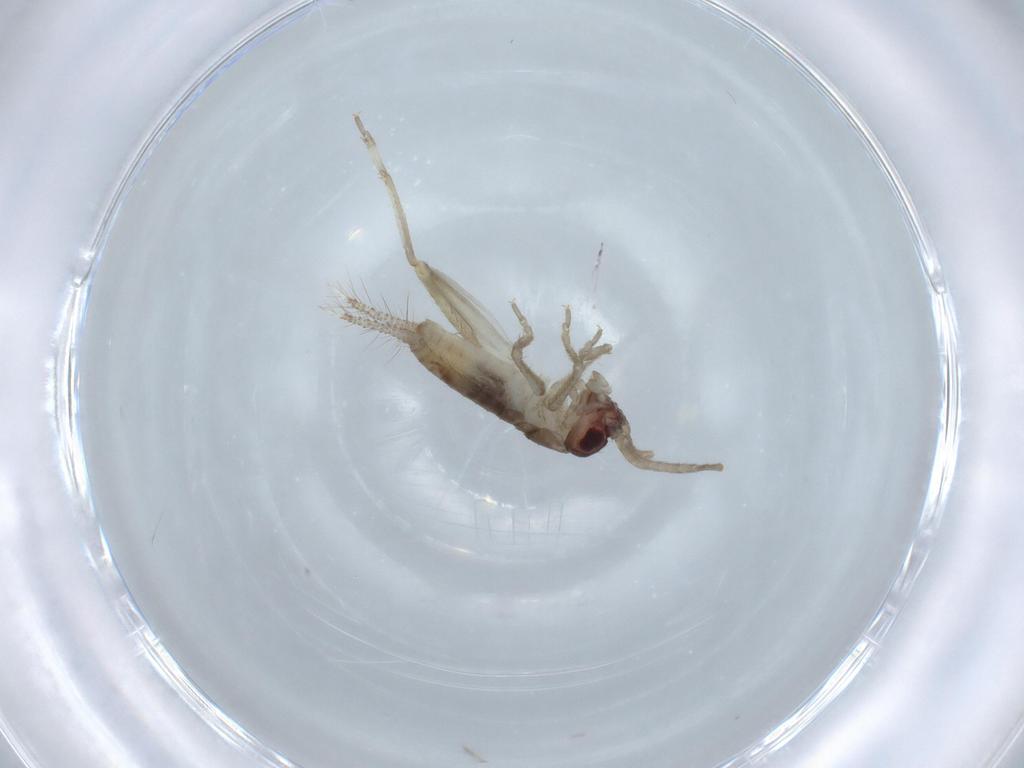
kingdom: Animalia
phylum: Arthropoda
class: Insecta
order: Orthoptera
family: Gryllidae
